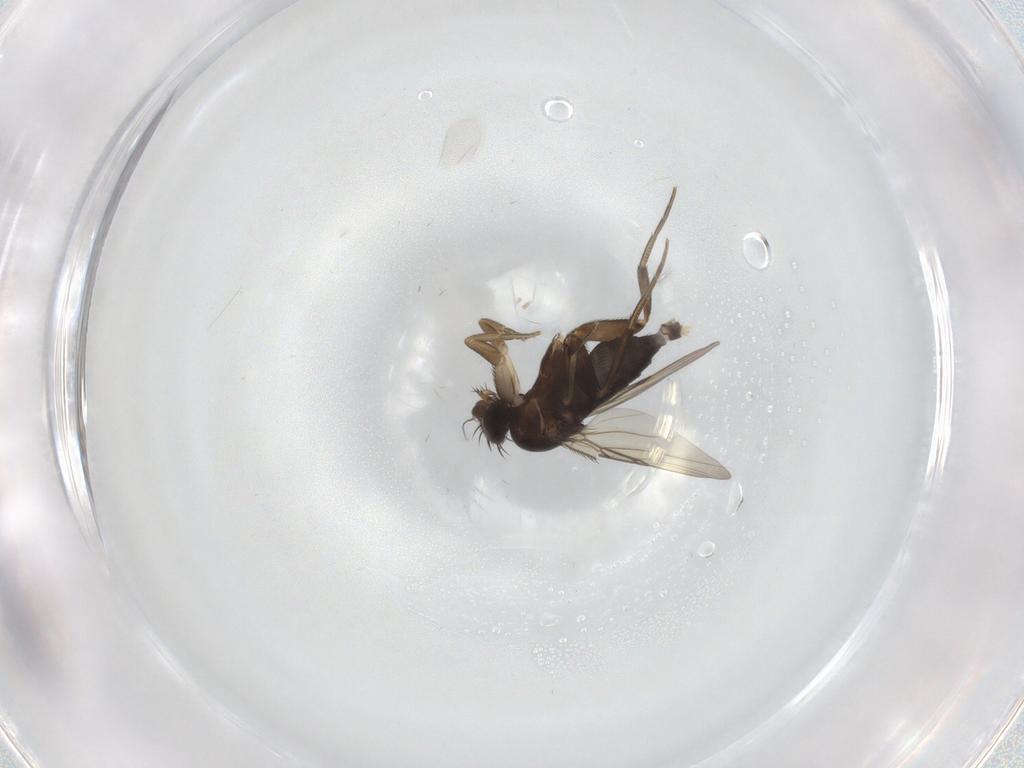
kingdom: Animalia
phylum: Arthropoda
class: Insecta
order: Diptera
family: Phoridae
